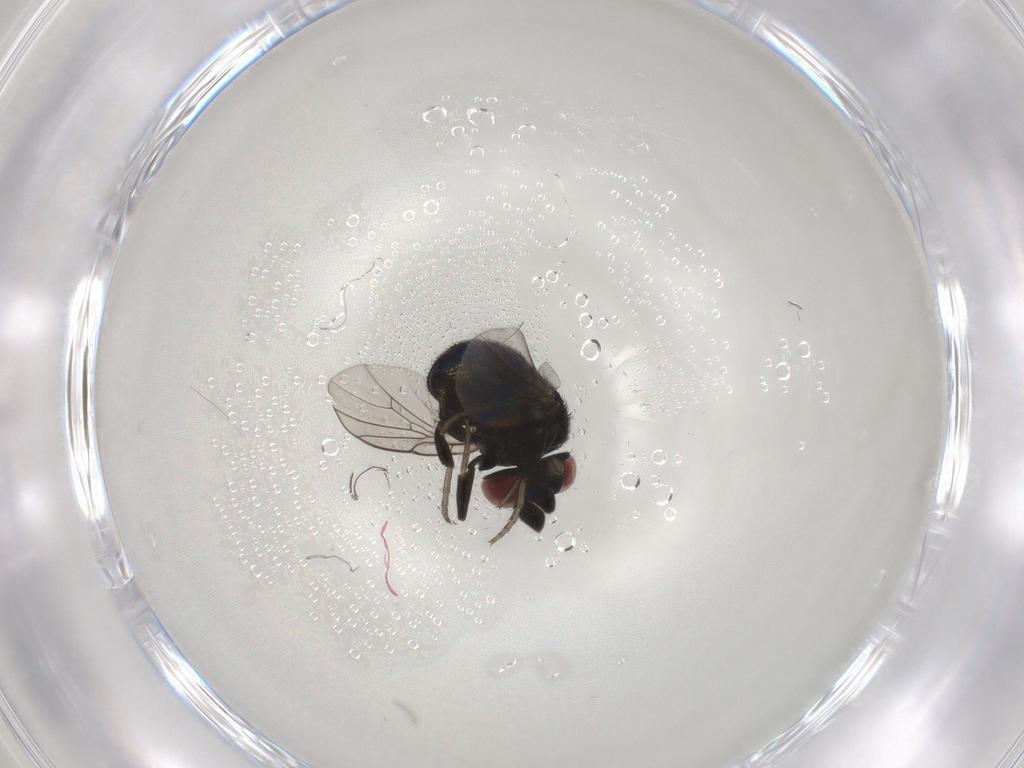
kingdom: Animalia
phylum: Arthropoda
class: Insecta
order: Diptera
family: Cryptochetidae
